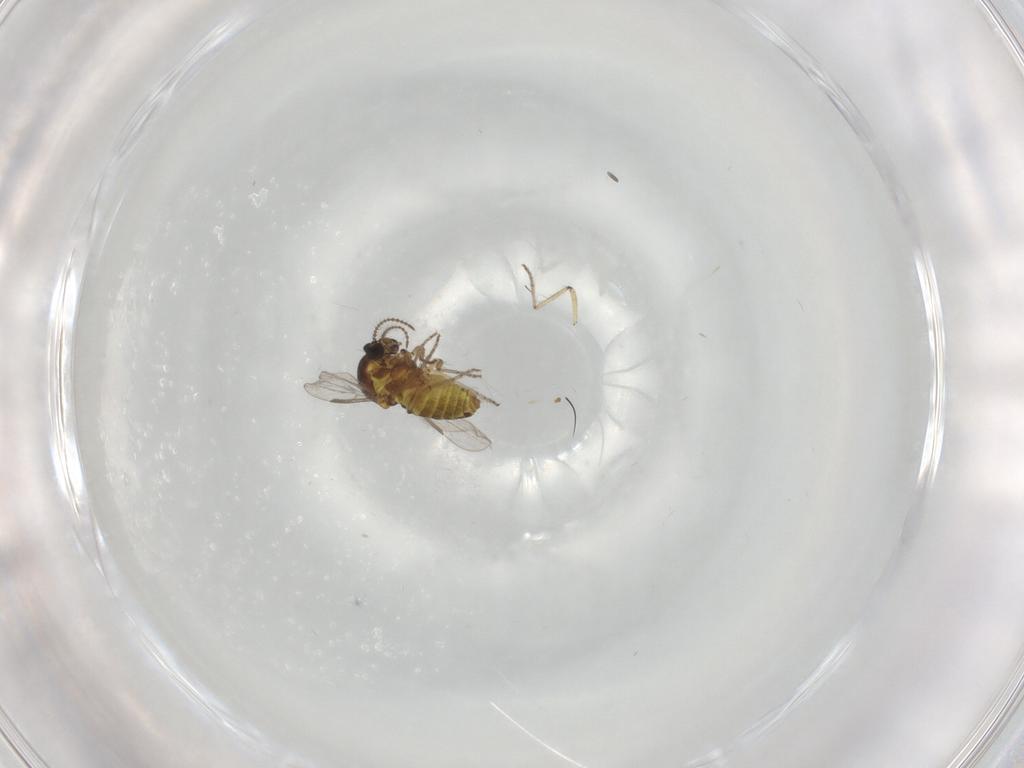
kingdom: Animalia
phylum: Arthropoda
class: Insecta
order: Diptera
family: Ceratopogonidae
